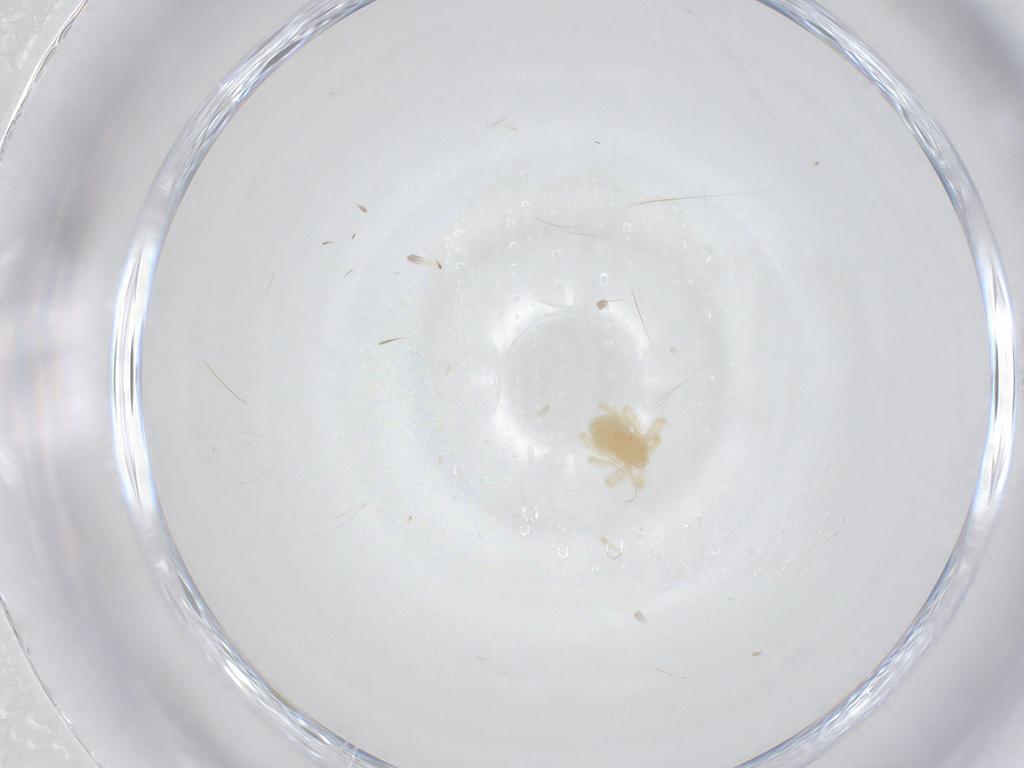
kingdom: Animalia
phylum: Arthropoda
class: Arachnida
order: Trombidiformes
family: Anystidae
